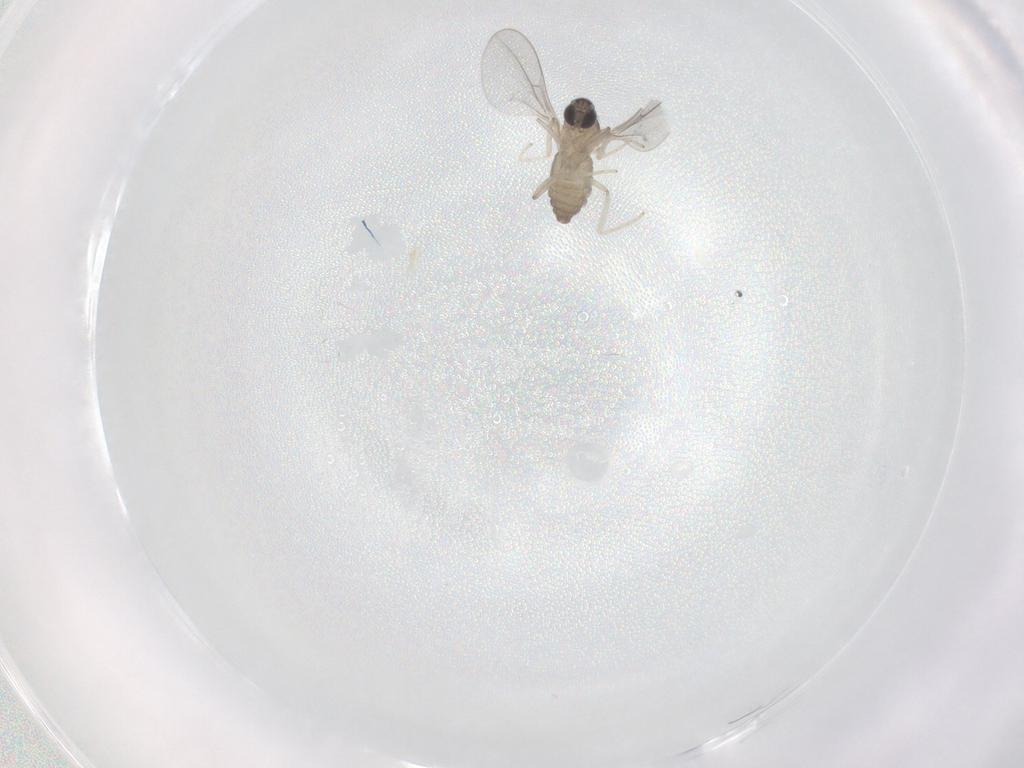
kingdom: Animalia
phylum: Arthropoda
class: Insecta
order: Diptera
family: Cecidomyiidae
